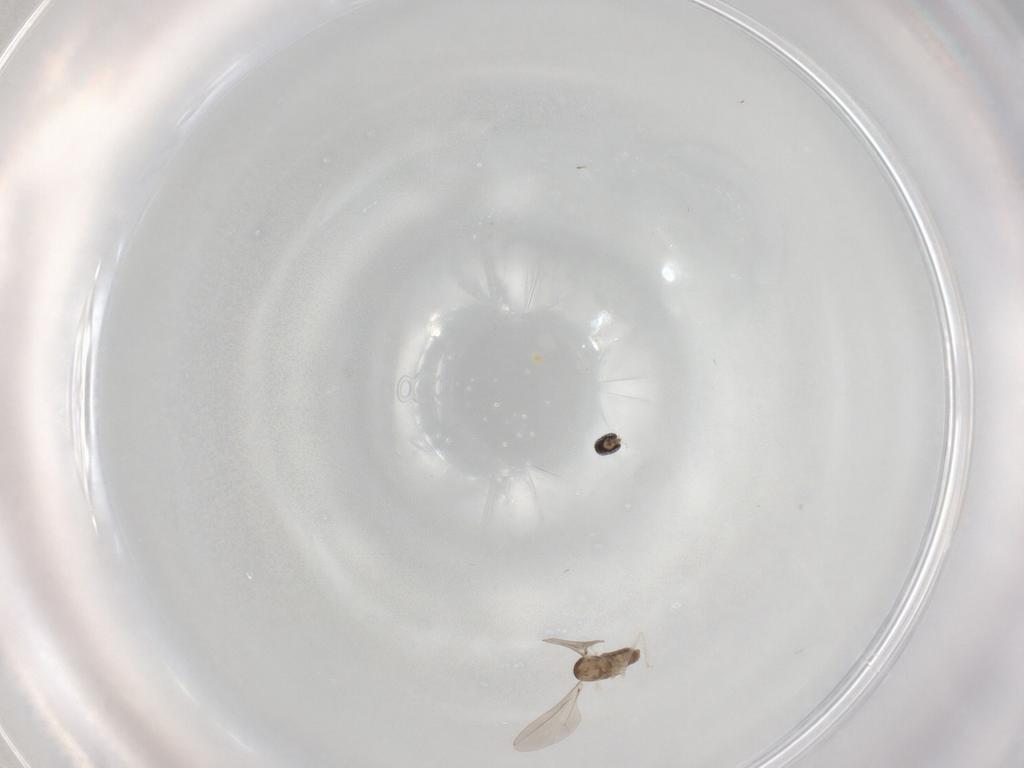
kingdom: Animalia
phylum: Arthropoda
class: Insecta
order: Diptera
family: Cecidomyiidae
